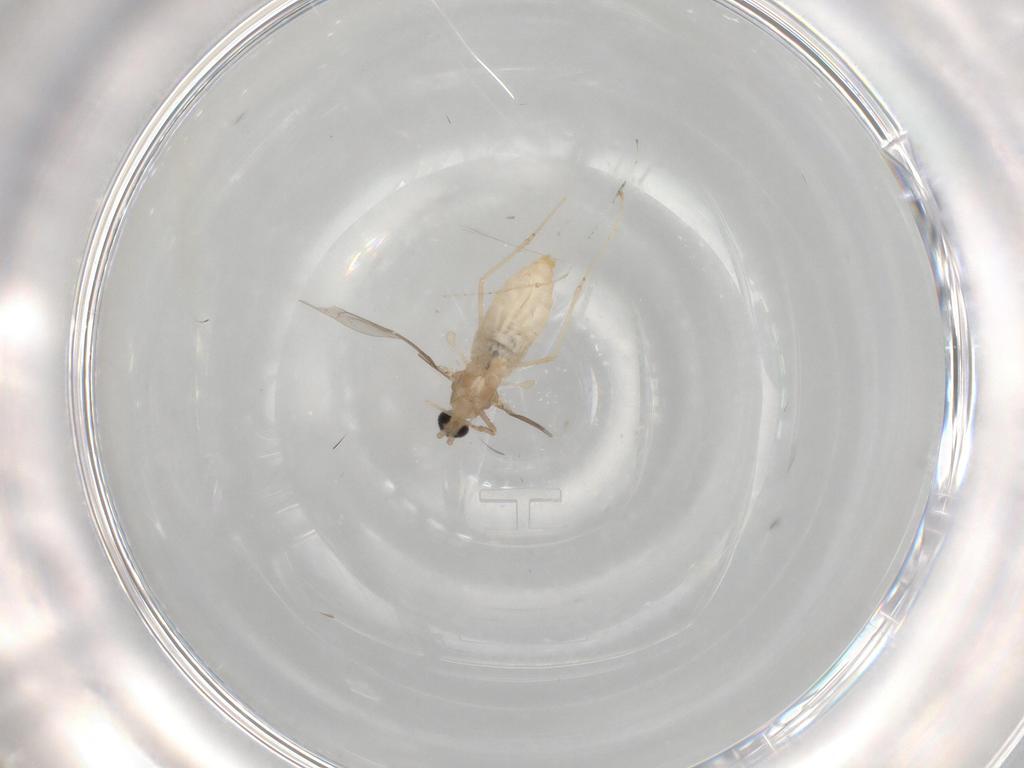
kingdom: Animalia
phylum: Arthropoda
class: Insecta
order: Diptera
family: Cecidomyiidae
